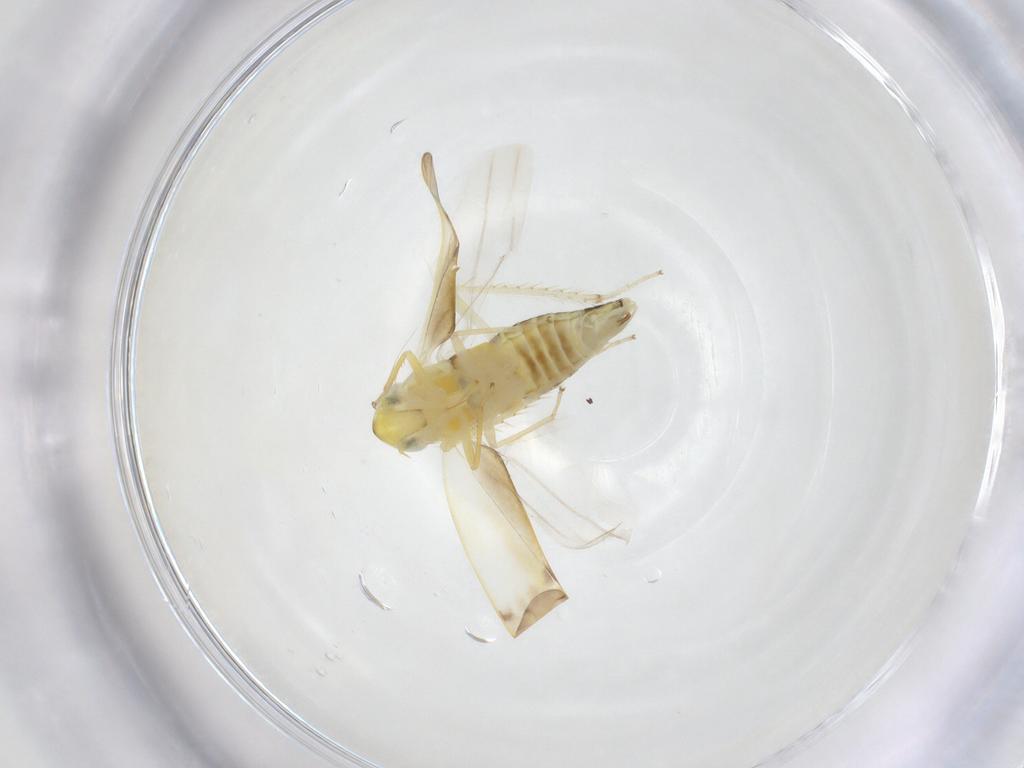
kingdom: Animalia
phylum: Arthropoda
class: Insecta
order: Hemiptera
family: Cicadellidae
